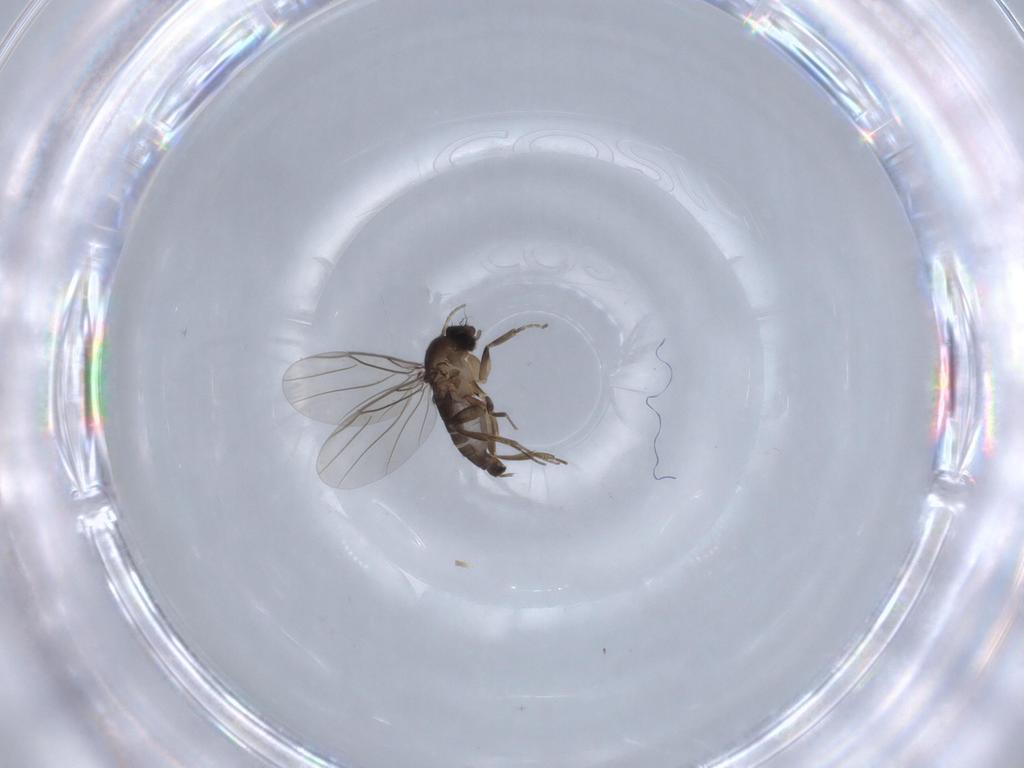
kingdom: Animalia
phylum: Arthropoda
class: Insecta
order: Diptera
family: Phoridae
